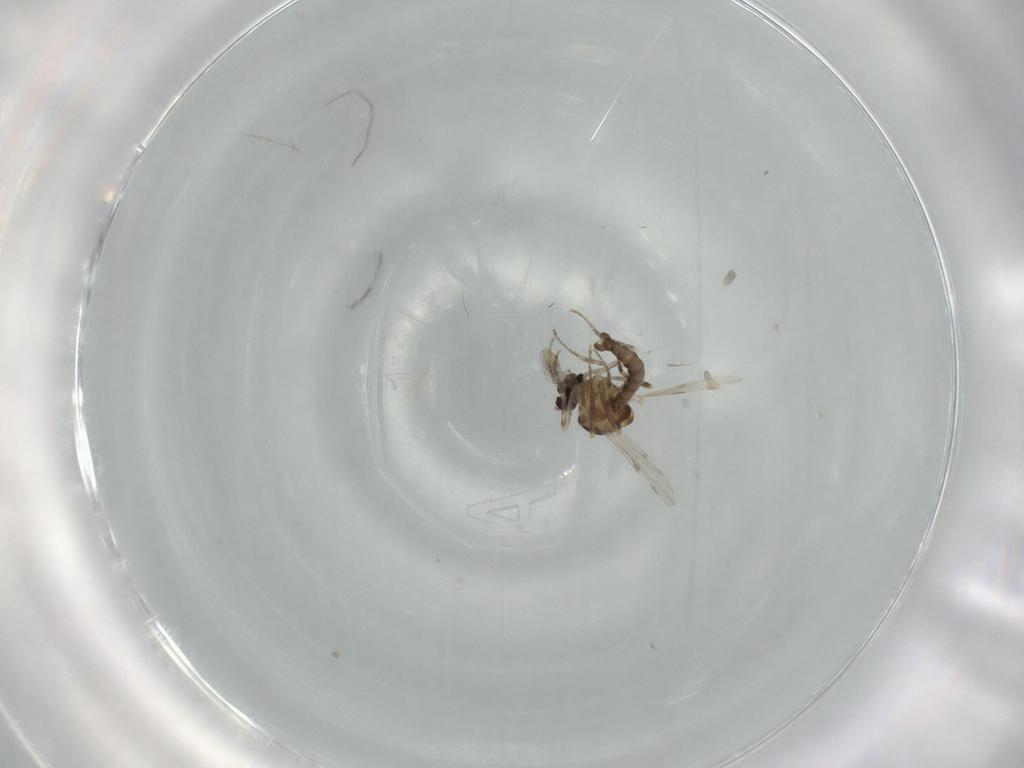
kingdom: Animalia
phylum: Arthropoda
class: Insecta
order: Diptera
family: Ceratopogonidae
